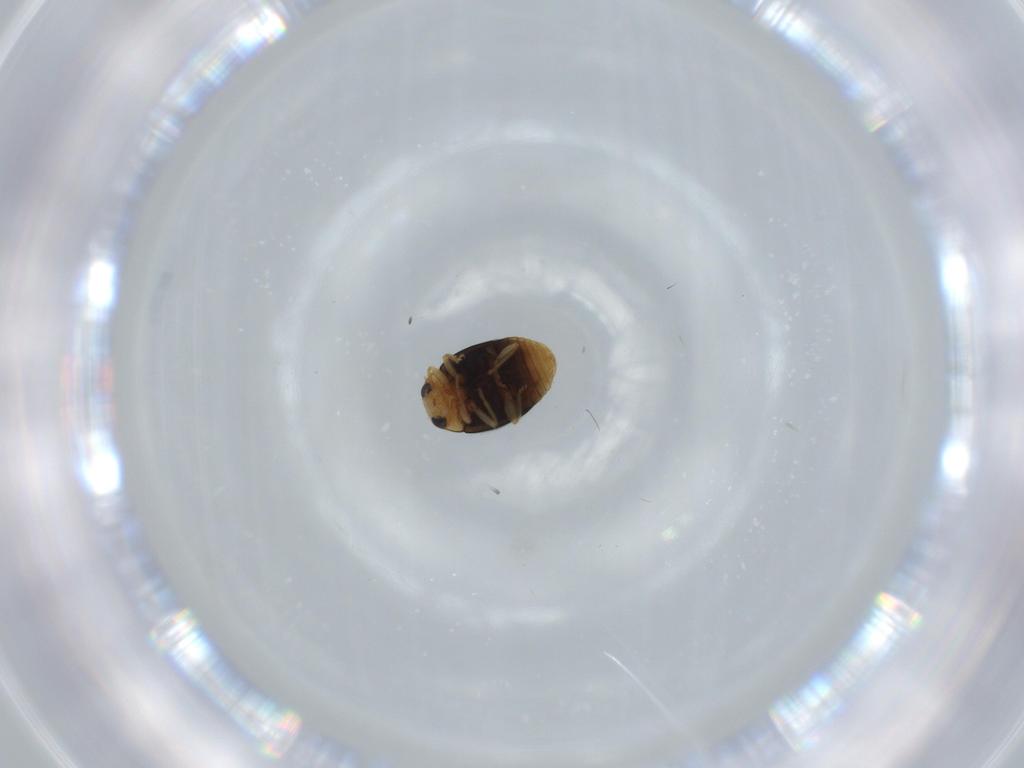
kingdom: Animalia
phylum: Arthropoda
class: Insecta
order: Coleoptera
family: Coccinellidae
